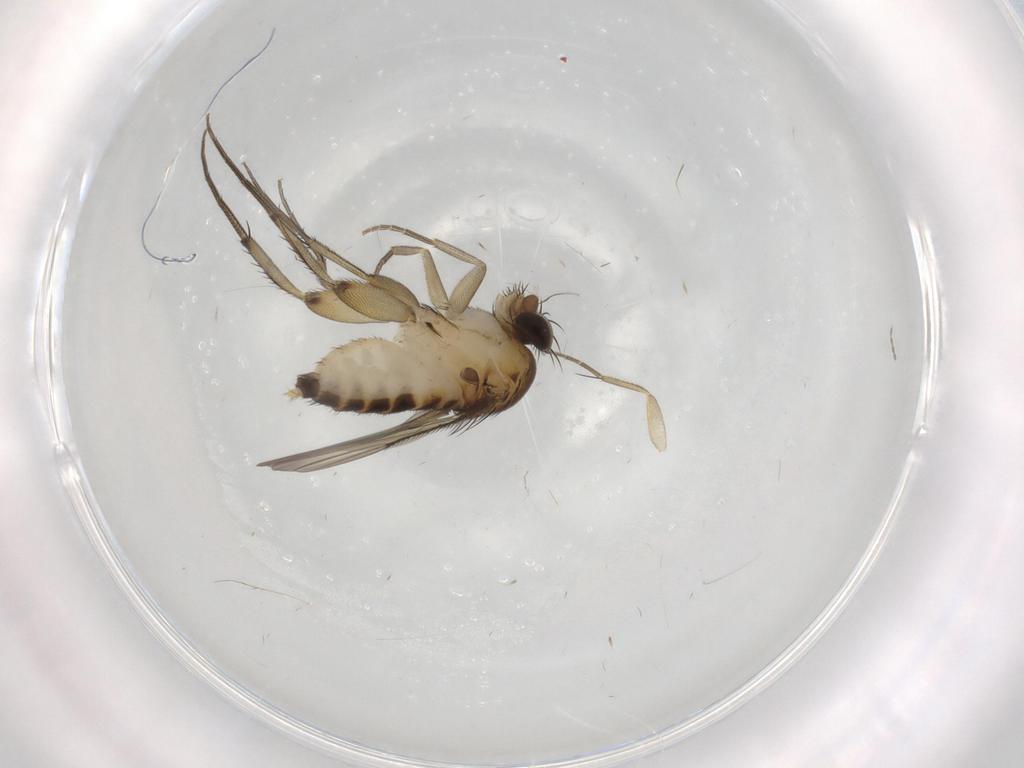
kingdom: Animalia
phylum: Arthropoda
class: Insecta
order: Diptera
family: Phoridae
